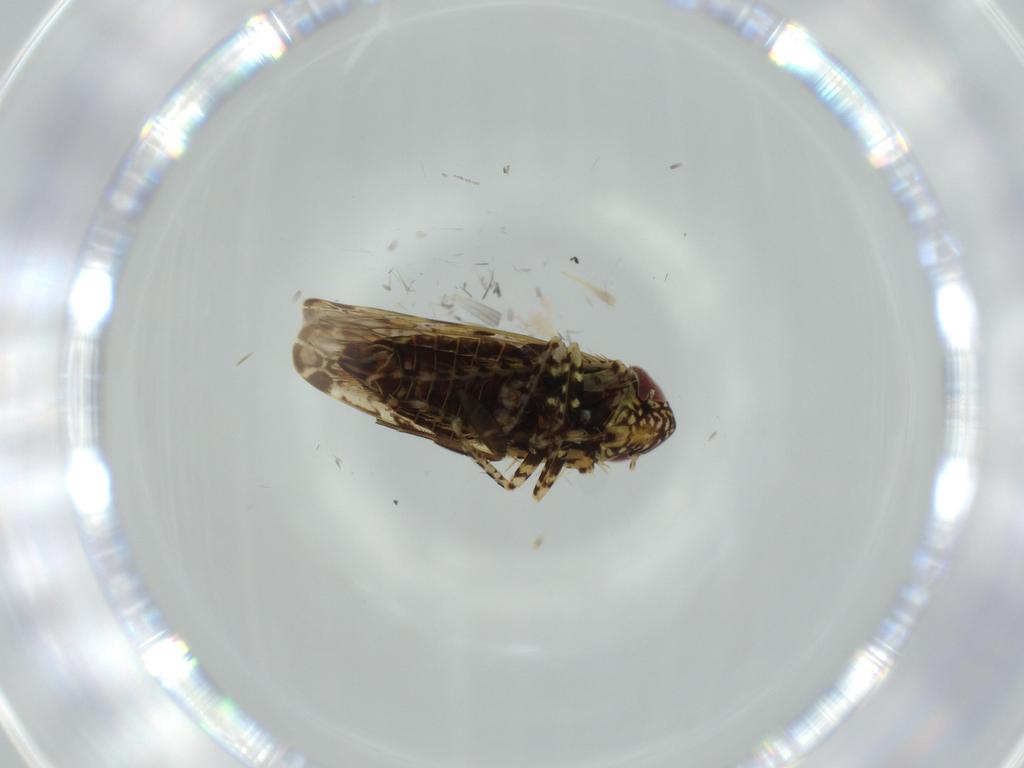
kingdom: Animalia
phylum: Arthropoda
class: Insecta
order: Hemiptera
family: Cicadellidae
